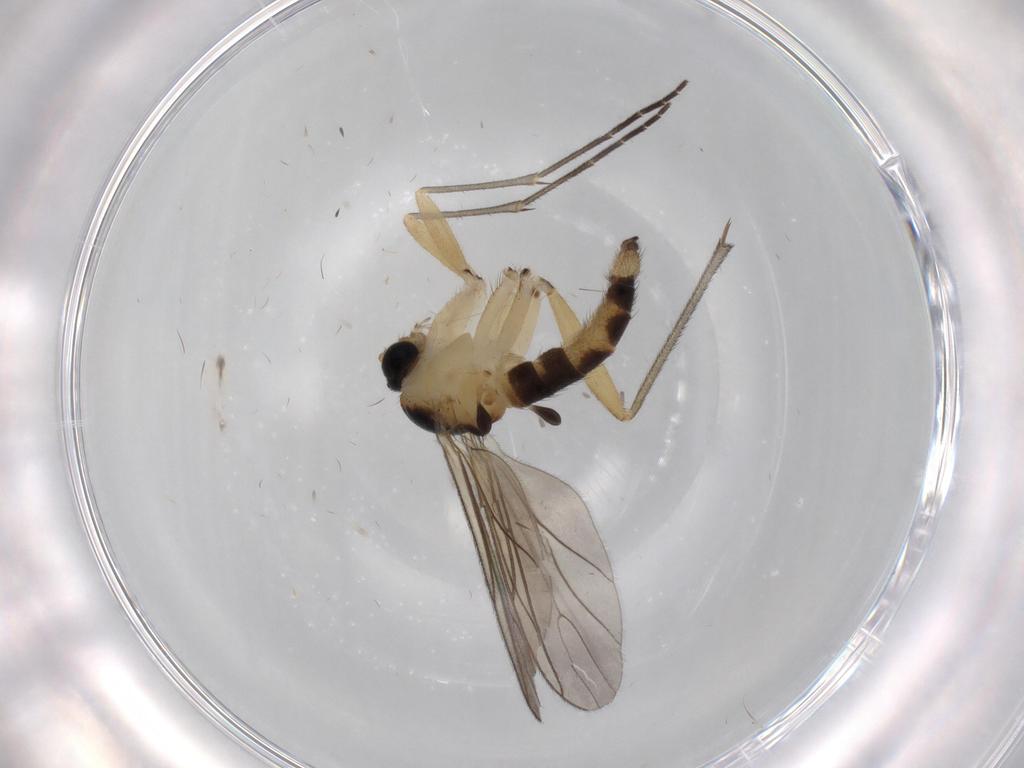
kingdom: Animalia
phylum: Arthropoda
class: Insecta
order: Diptera
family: Sciaridae
